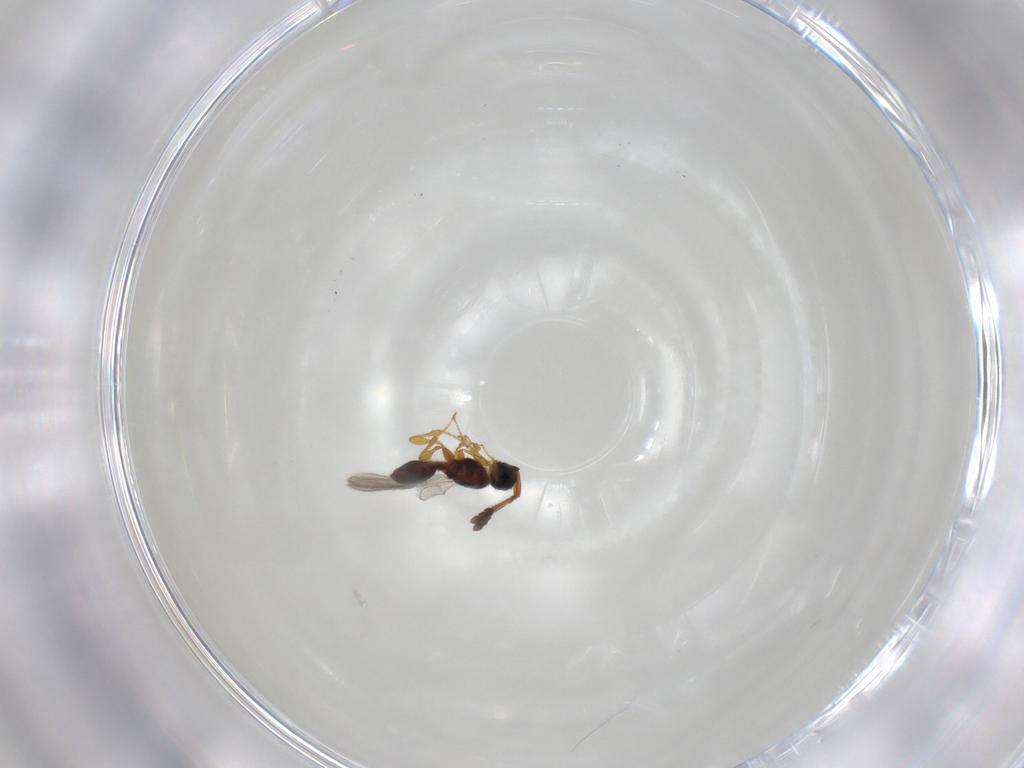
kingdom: Animalia
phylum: Arthropoda
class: Insecta
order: Hymenoptera
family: Diapriidae
